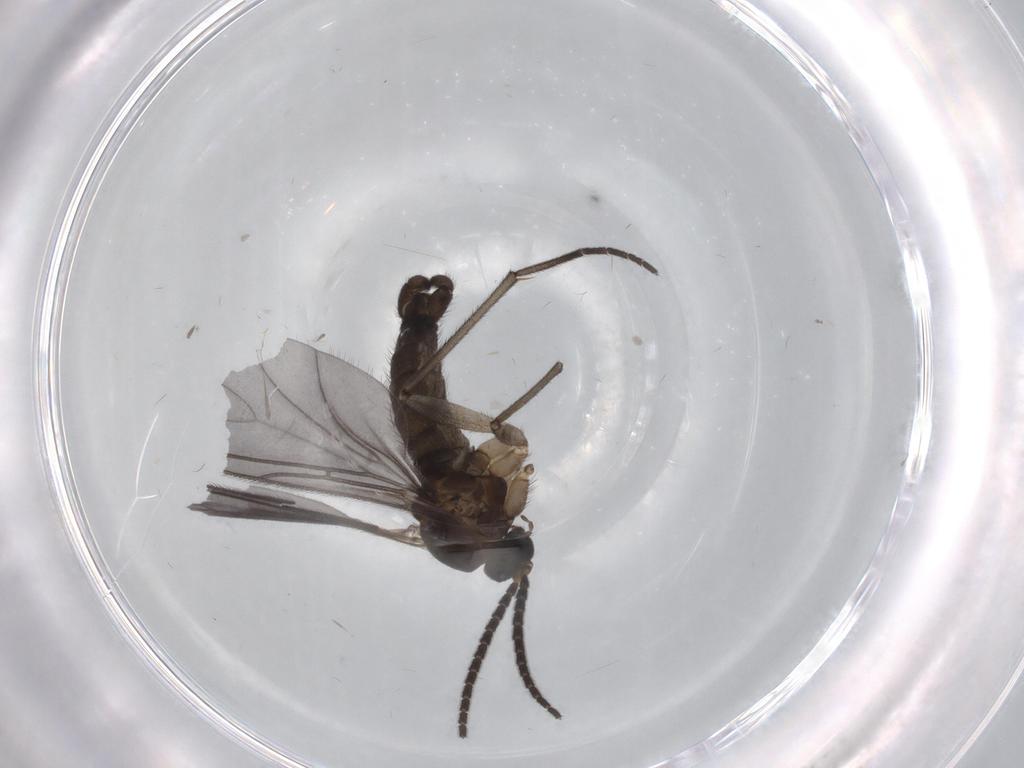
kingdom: Animalia
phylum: Arthropoda
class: Insecta
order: Diptera
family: Sciaridae
